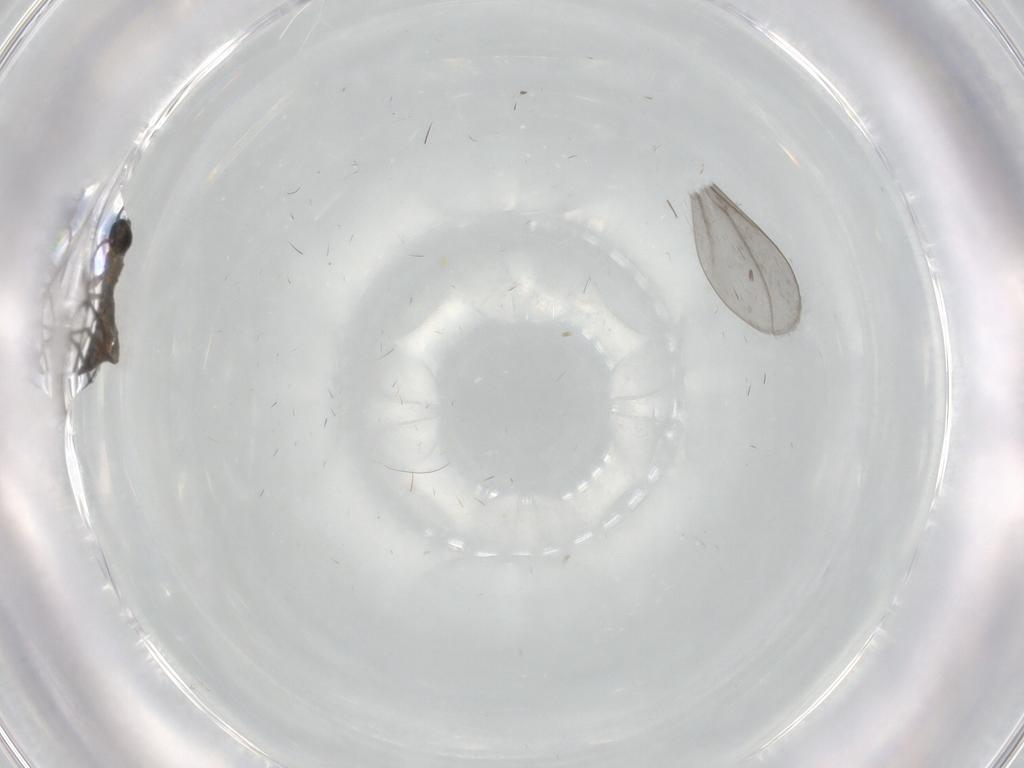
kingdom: Animalia
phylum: Arthropoda
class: Insecta
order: Diptera
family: Cecidomyiidae
